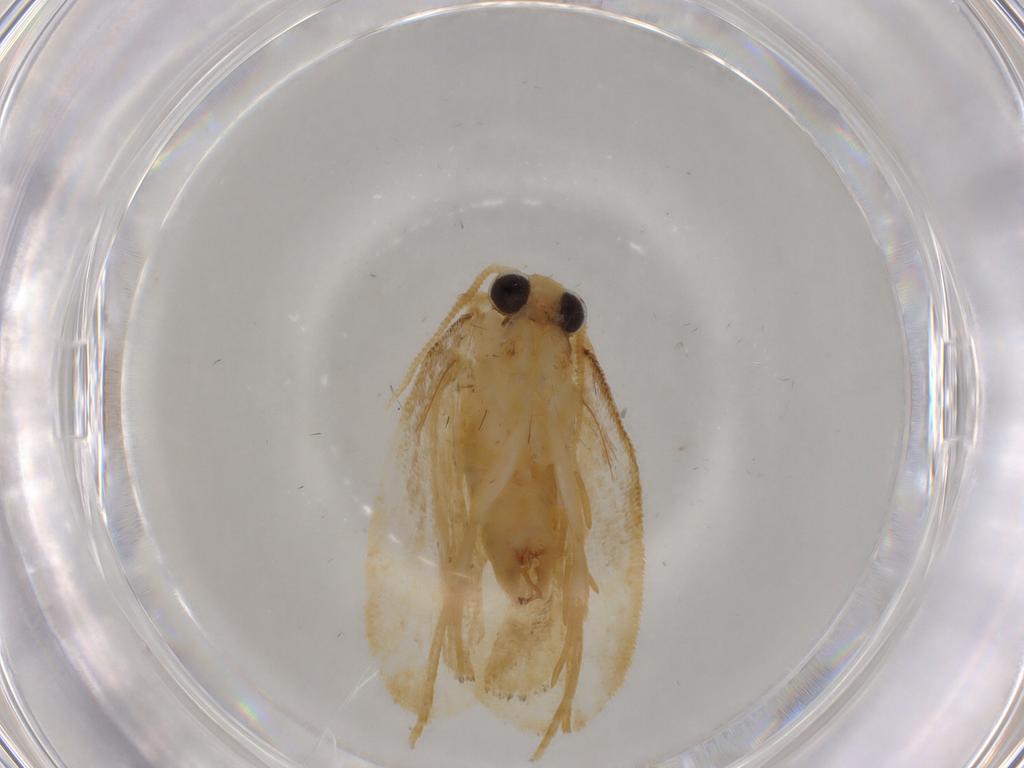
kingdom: Animalia
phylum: Arthropoda
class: Insecta
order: Lepidoptera
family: Psychidae
